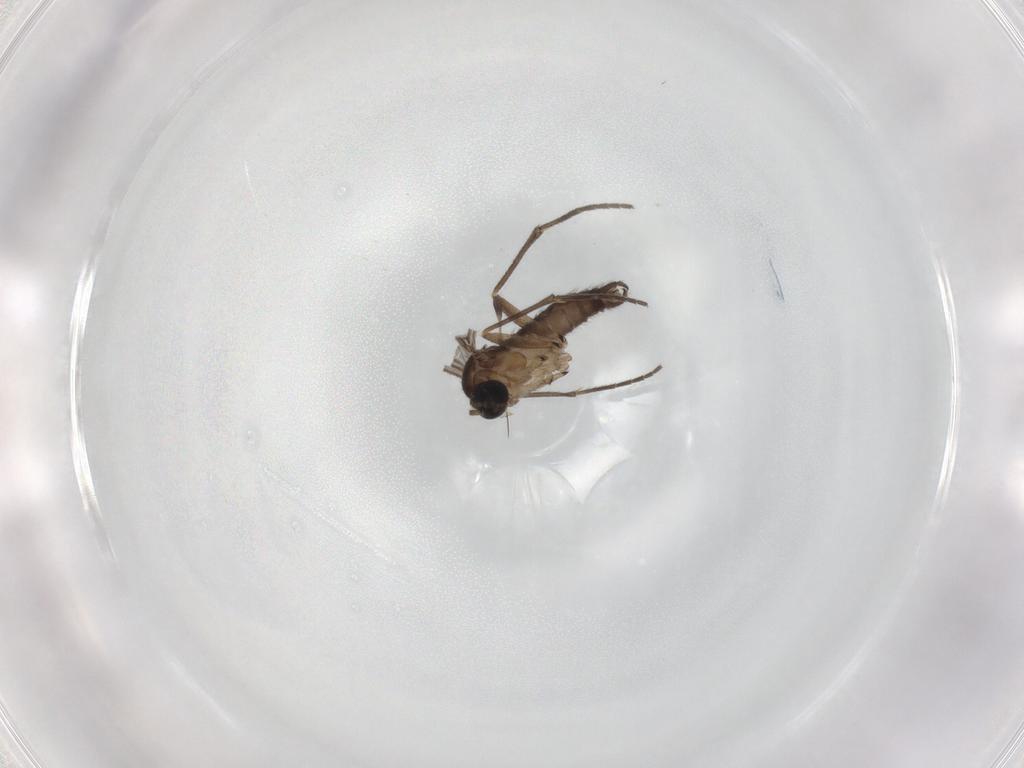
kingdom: Animalia
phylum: Arthropoda
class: Insecta
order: Diptera
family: Sciaridae
